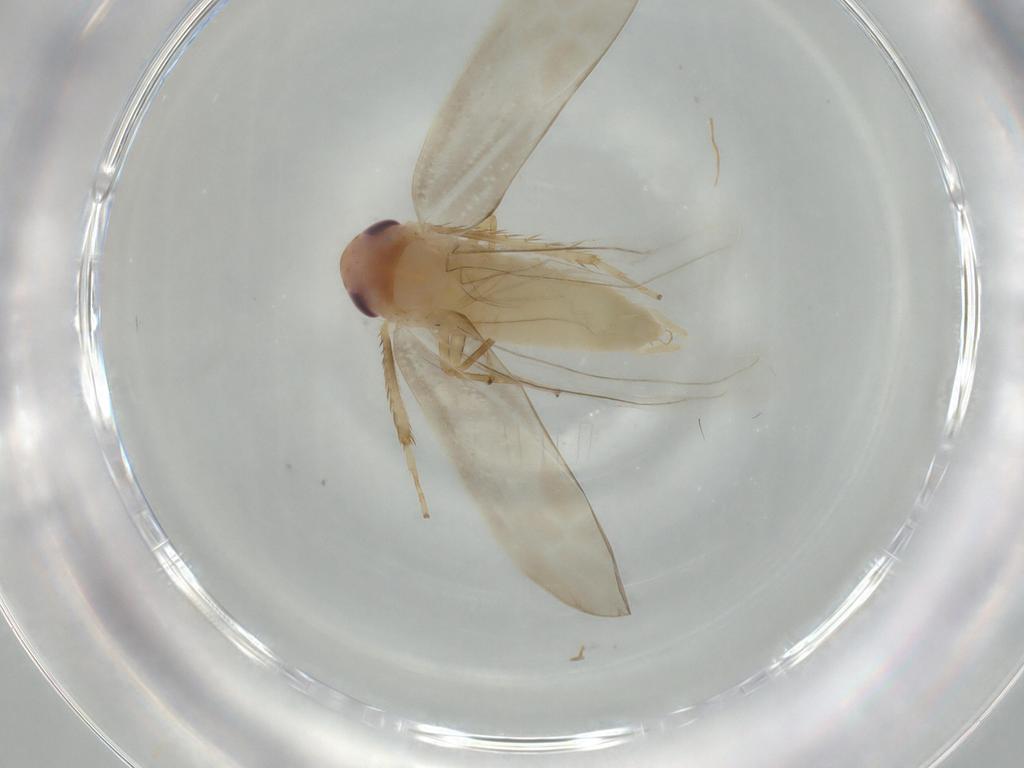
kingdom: Animalia
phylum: Arthropoda
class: Insecta
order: Hemiptera
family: Cicadellidae
